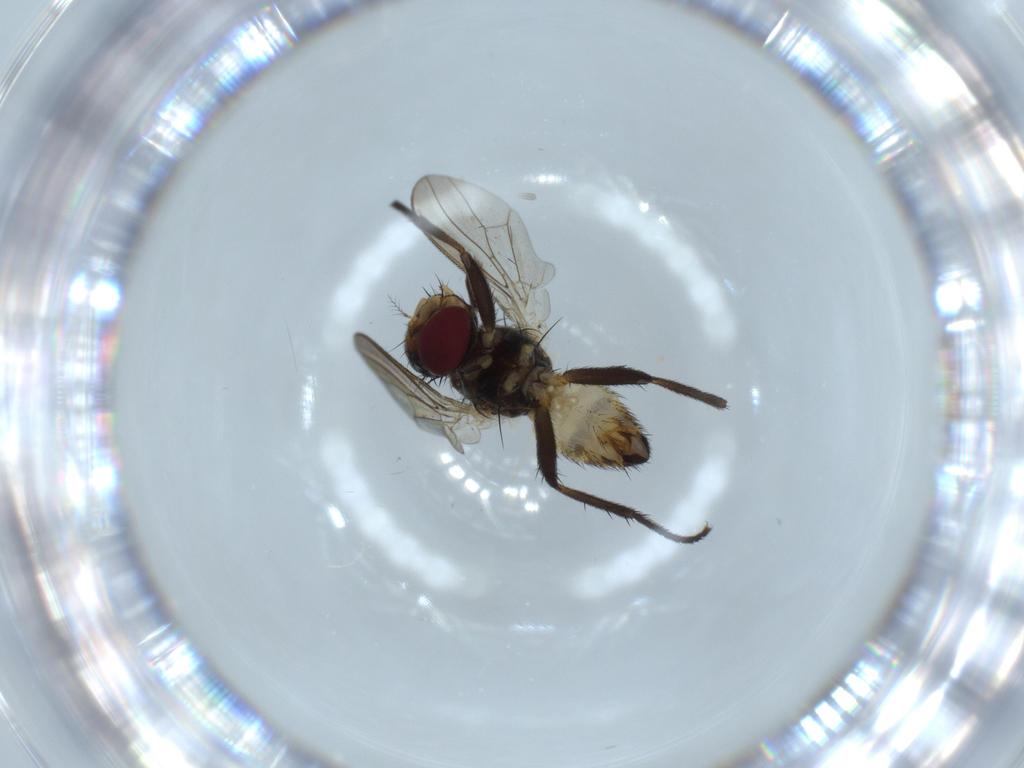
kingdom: Animalia
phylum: Arthropoda
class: Insecta
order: Diptera
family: Anthomyiidae
